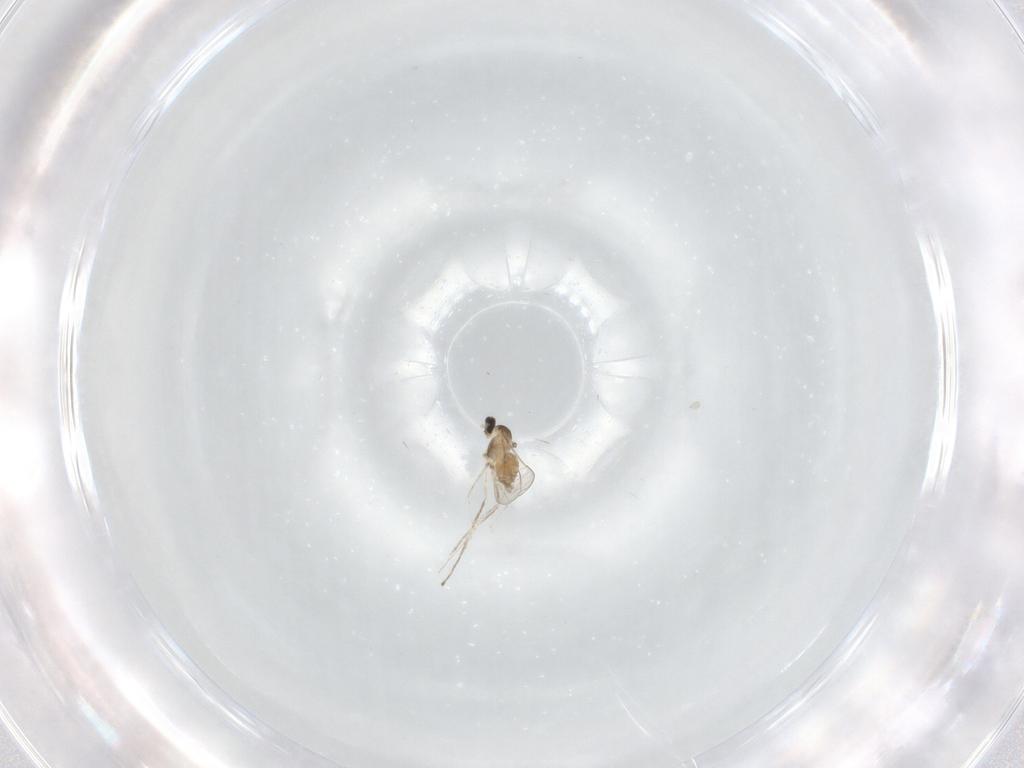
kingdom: Animalia
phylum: Arthropoda
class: Insecta
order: Diptera
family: Cecidomyiidae
